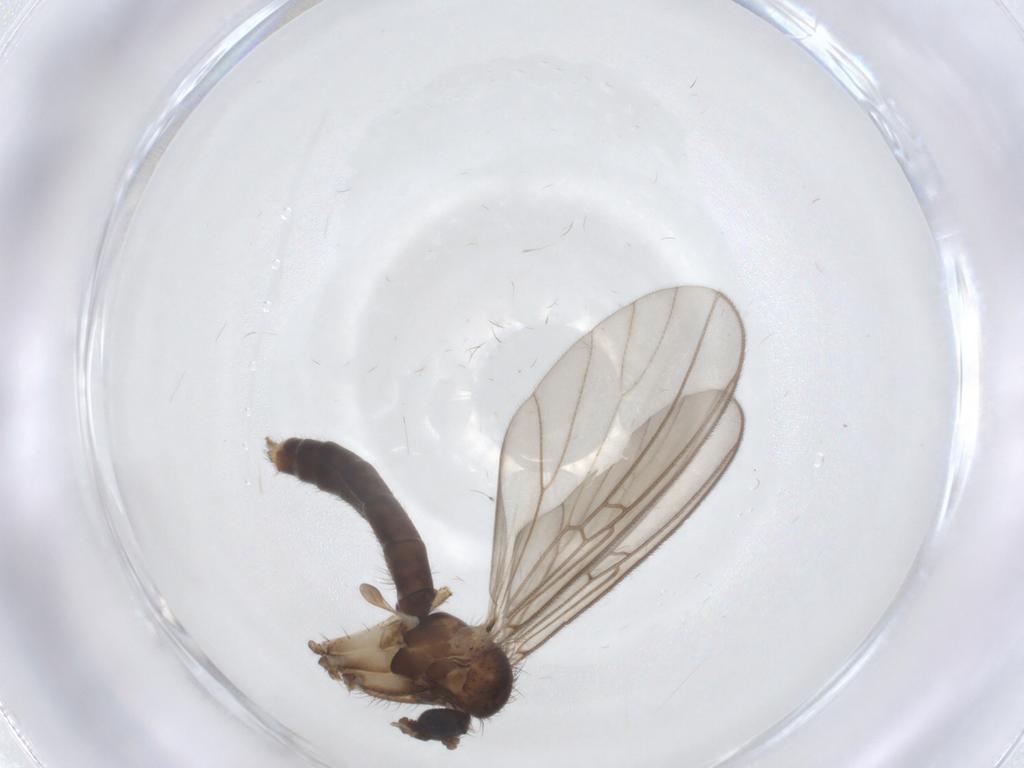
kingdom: Animalia
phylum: Arthropoda
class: Insecta
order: Diptera
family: Mycetophilidae
